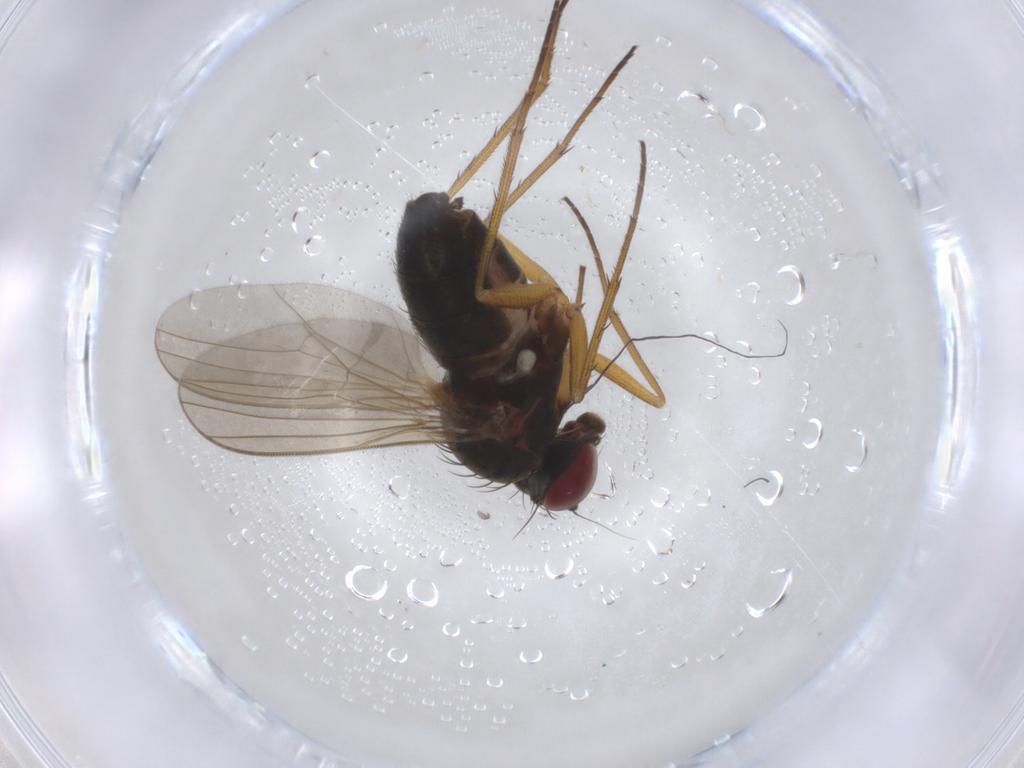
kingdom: Animalia
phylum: Arthropoda
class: Insecta
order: Diptera
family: Dolichopodidae
